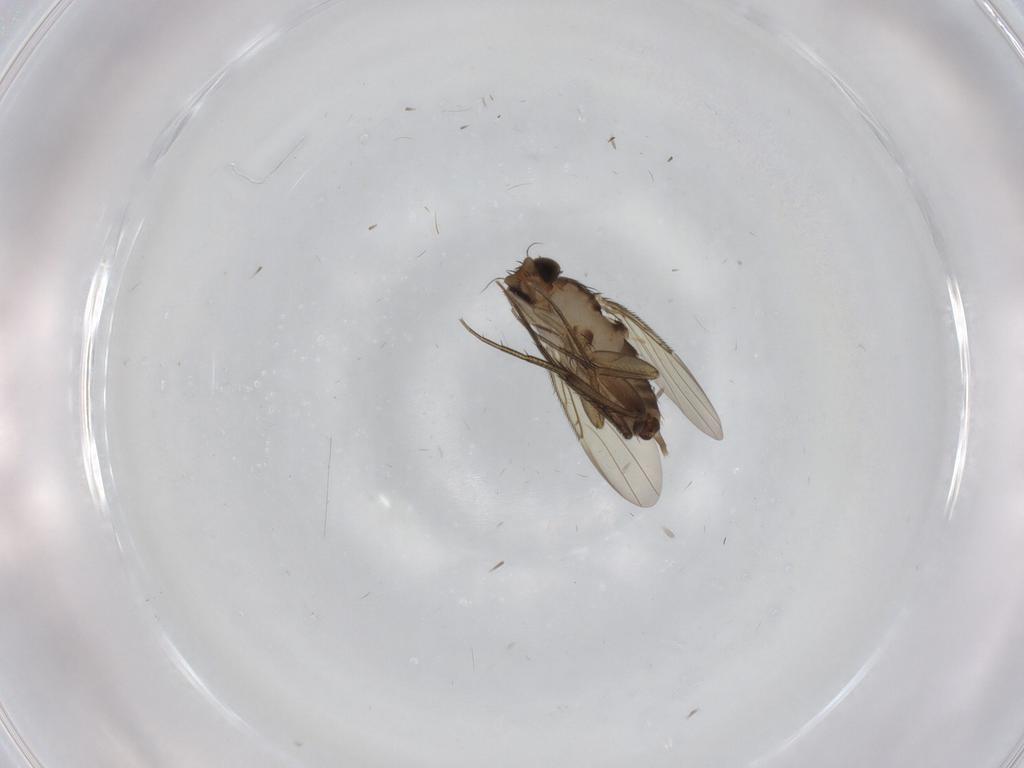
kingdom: Animalia
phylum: Arthropoda
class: Insecta
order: Diptera
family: Phoridae
